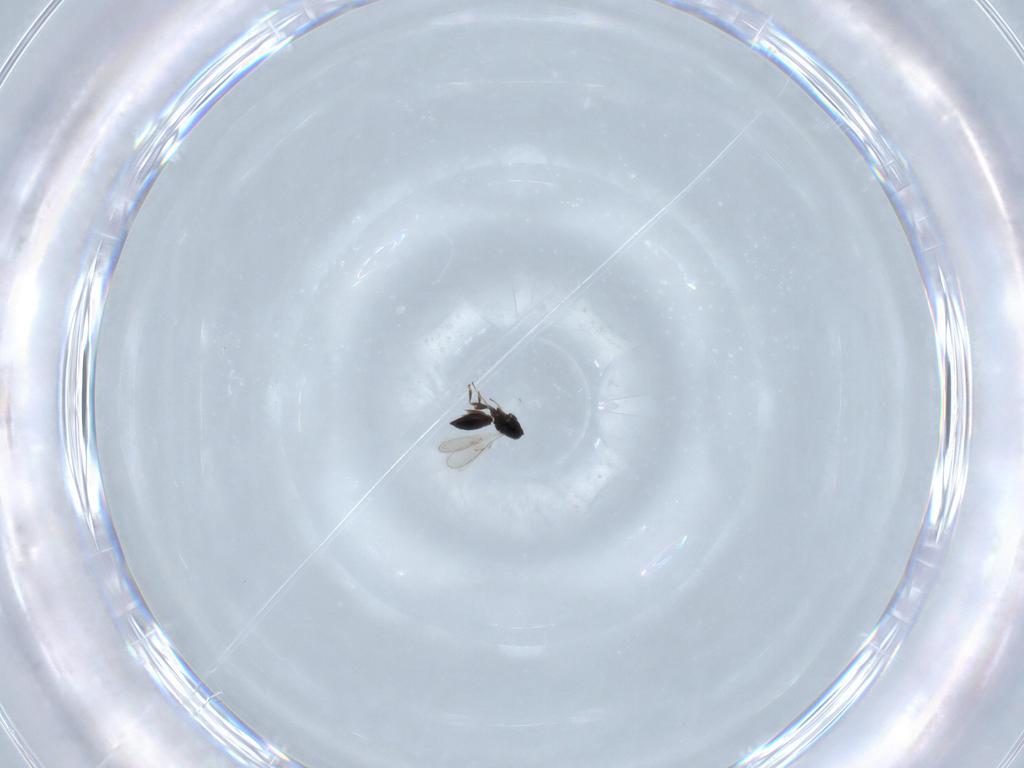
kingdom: Animalia
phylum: Arthropoda
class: Insecta
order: Hymenoptera
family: Scelionidae
